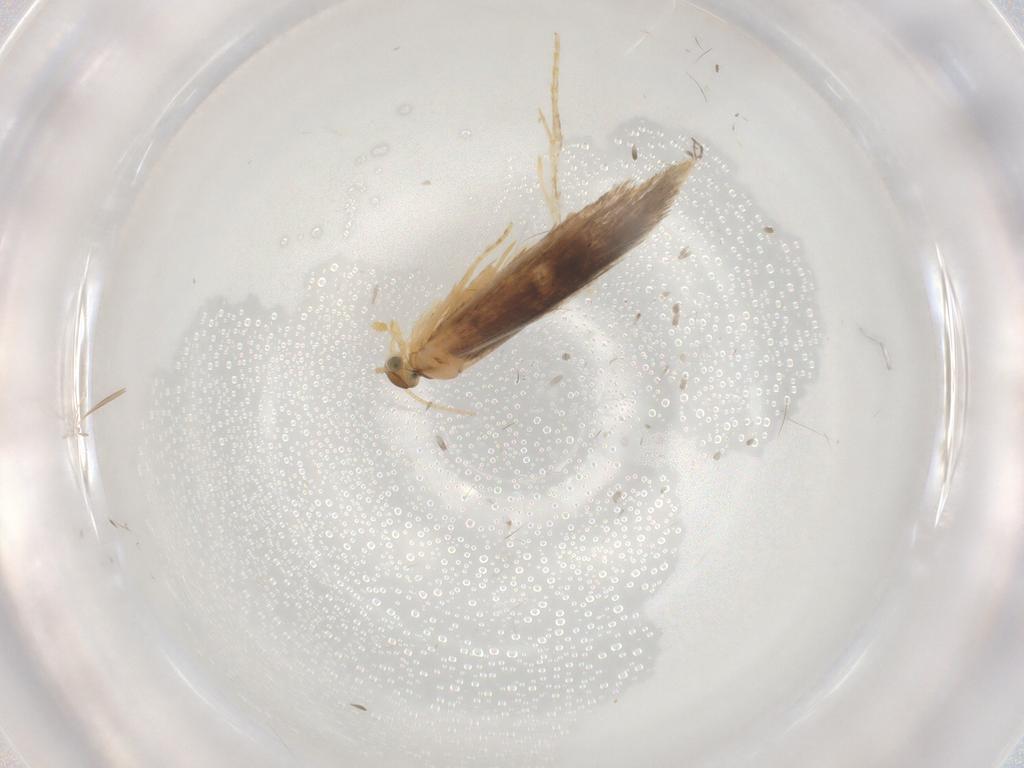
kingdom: Animalia
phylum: Arthropoda
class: Insecta
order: Lepidoptera
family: Dryadaulidae
